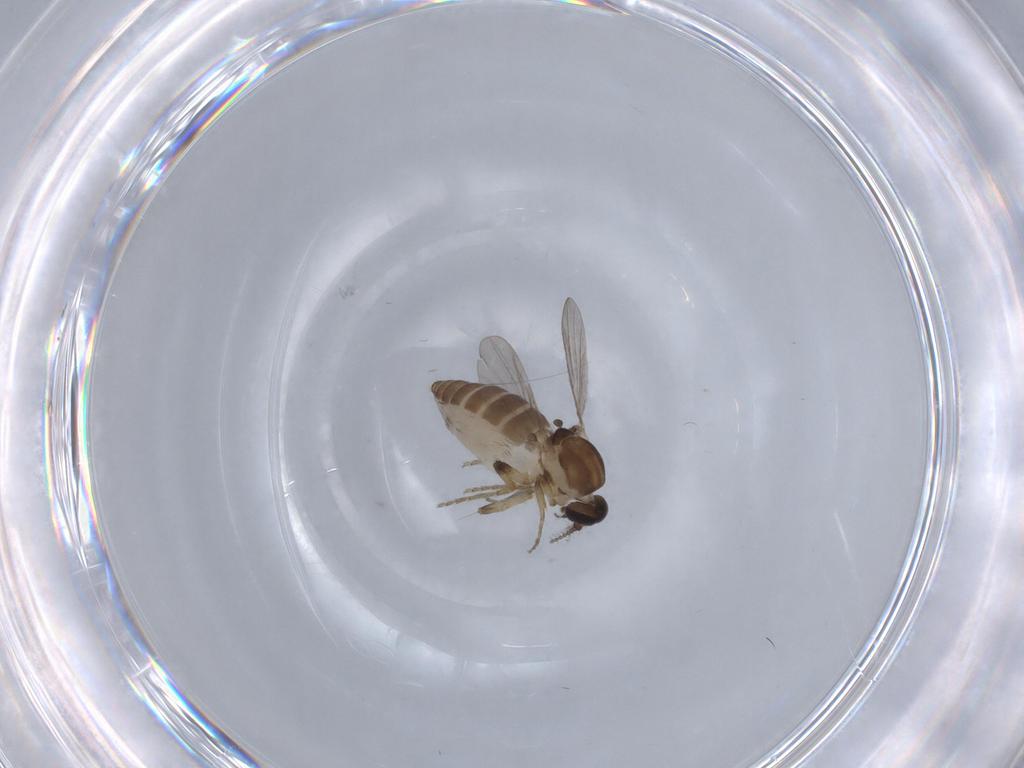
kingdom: Animalia
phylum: Arthropoda
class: Insecta
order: Diptera
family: Ceratopogonidae
